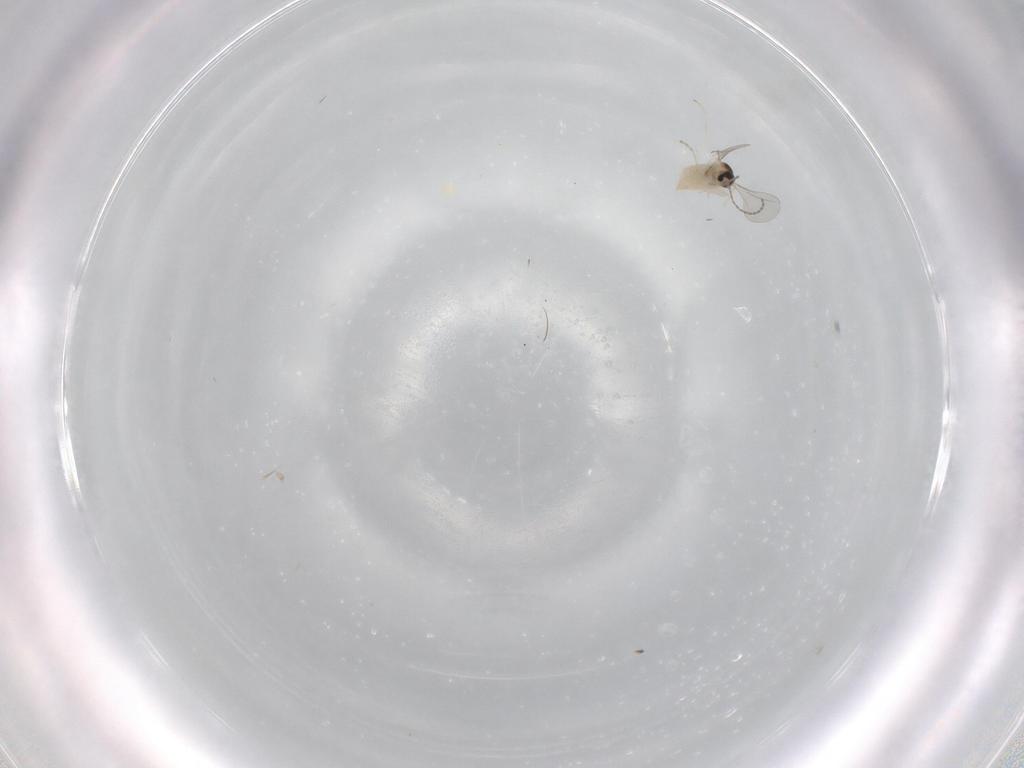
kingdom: Animalia
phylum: Arthropoda
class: Insecta
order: Diptera
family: Cecidomyiidae
